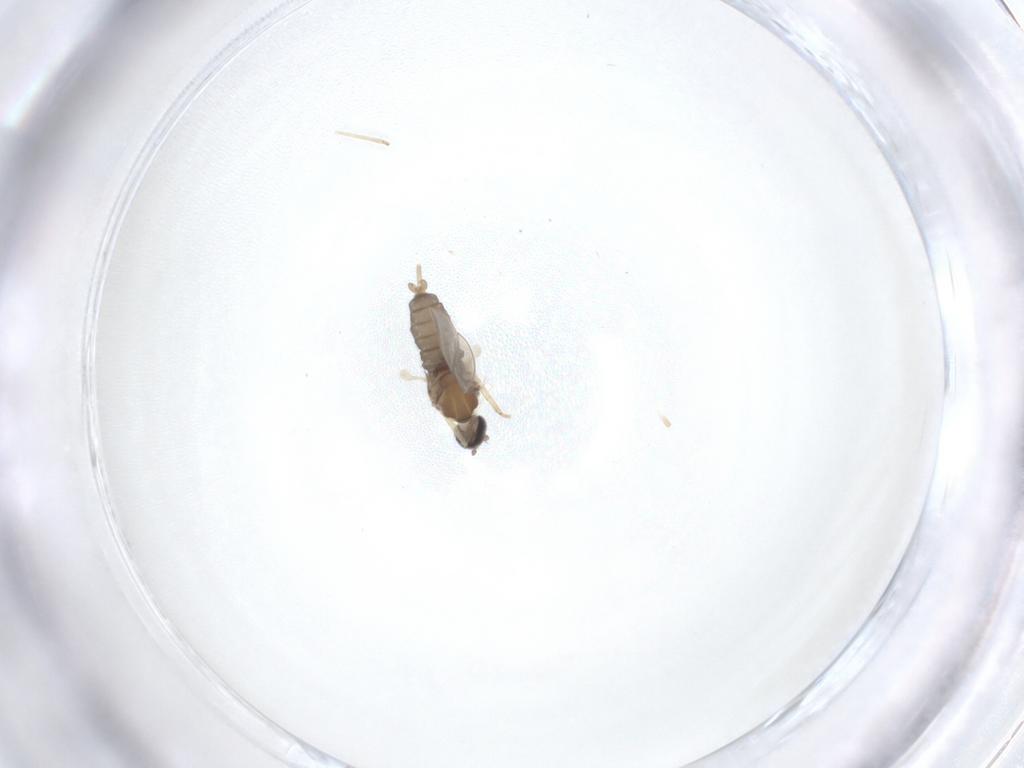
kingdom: Animalia
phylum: Arthropoda
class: Insecta
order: Diptera
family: Cecidomyiidae
